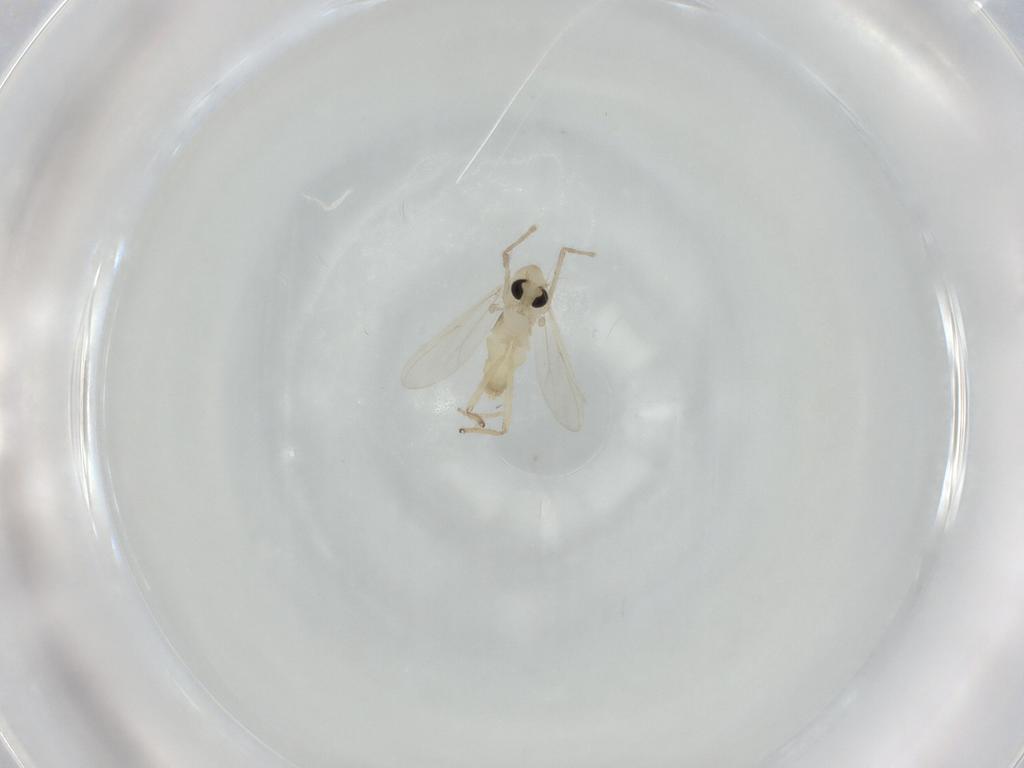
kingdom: Animalia
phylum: Arthropoda
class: Insecta
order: Diptera
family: Chironomidae
